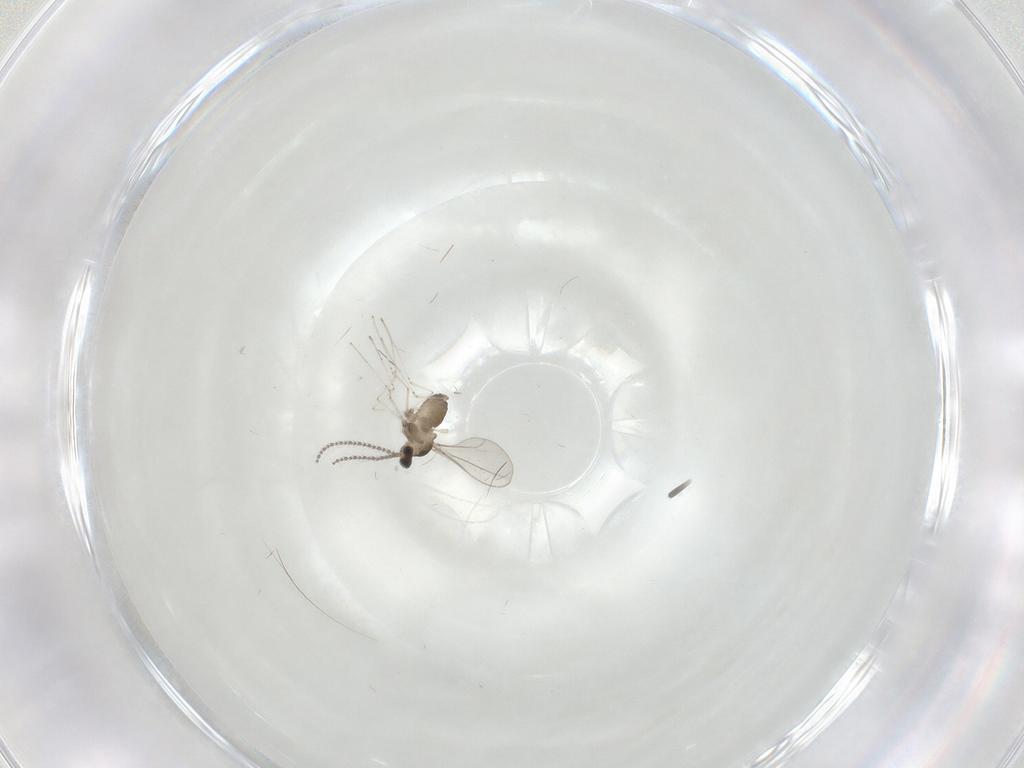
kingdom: Animalia
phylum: Arthropoda
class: Insecta
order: Diptera
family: Cecidomyiidae
